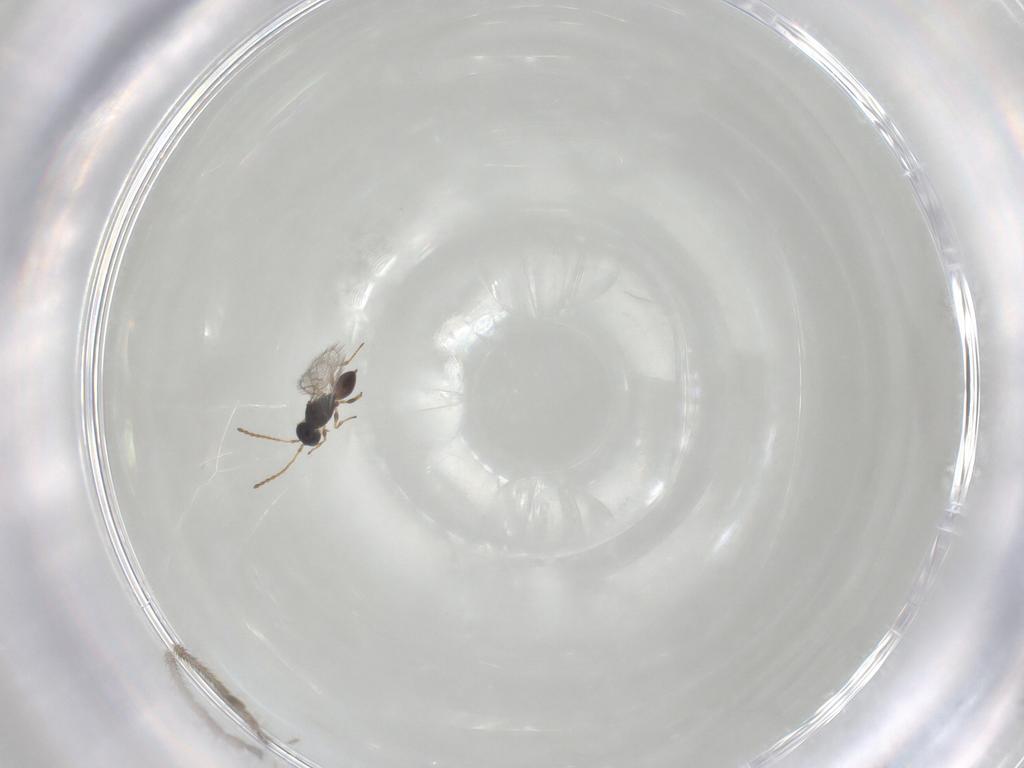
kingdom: Animalia
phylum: Arthropoda
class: Insecta
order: Hymenoptera
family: Figitidae
